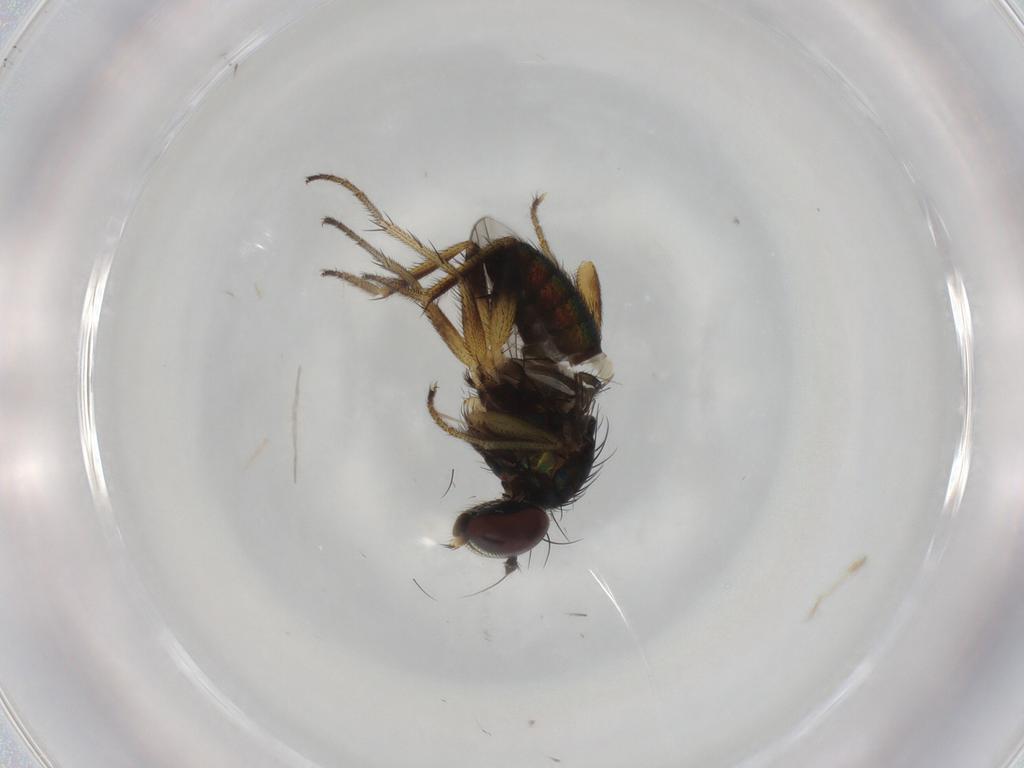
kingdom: Animalia
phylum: Arthropoda
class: Insecta
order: Diptera
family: Dolichopodidae
